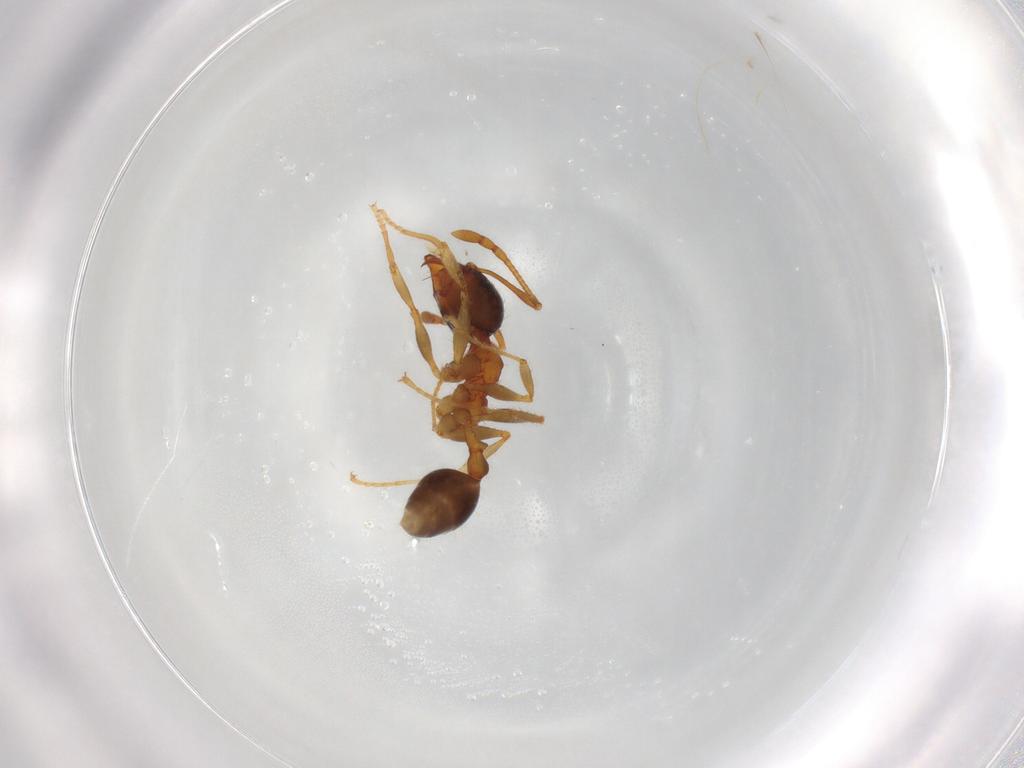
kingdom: Animalia
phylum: Arthropoda
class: Insecta
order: Hymenoptera
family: Formicidae
